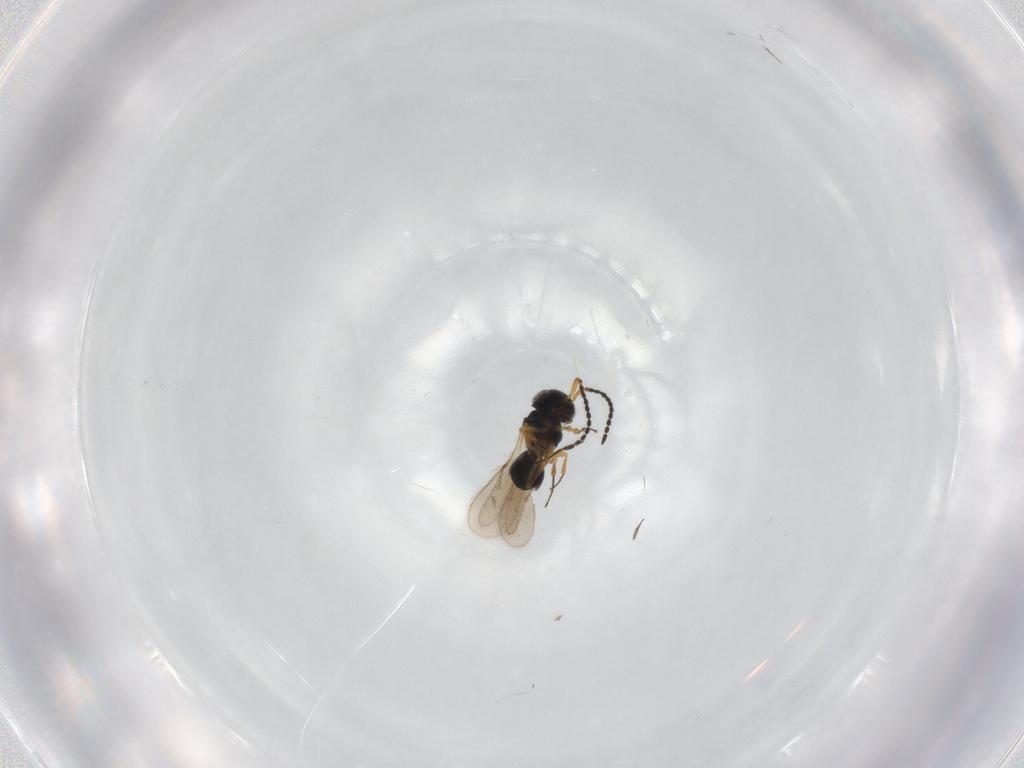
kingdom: Animalia
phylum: Arthropoda
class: Insecta
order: Hymenoptera
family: Scelionidae
